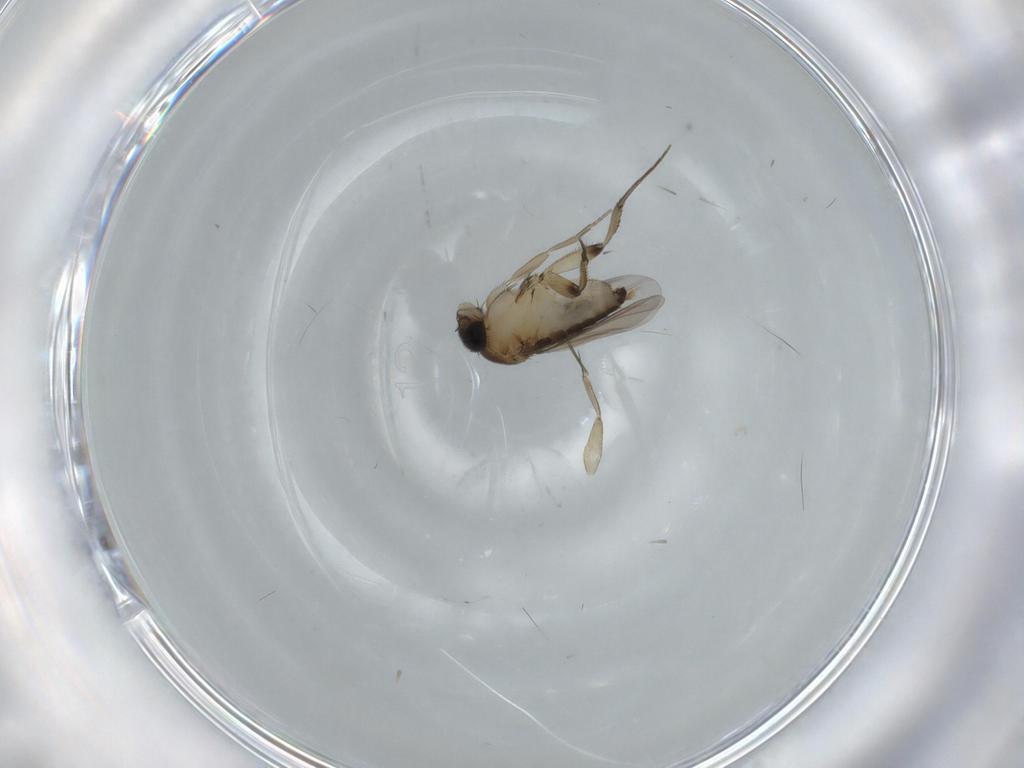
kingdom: Animalia
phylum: Arthropoda
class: Insecta
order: Diptera
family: Phoridae
